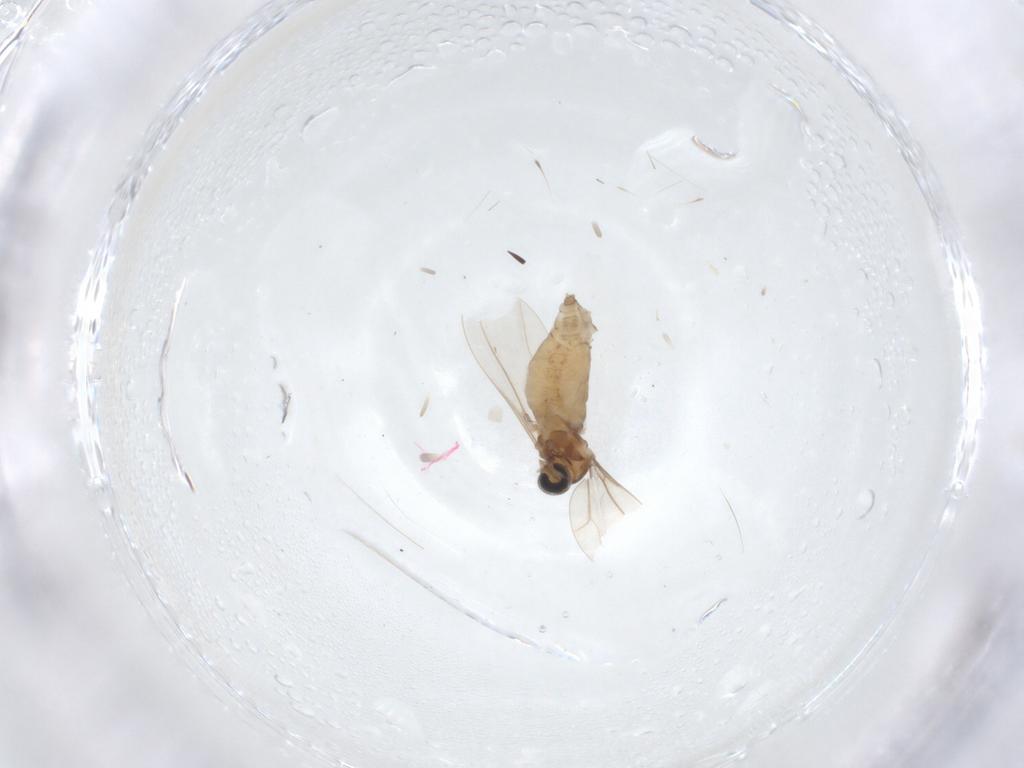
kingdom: Animalia
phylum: Arthropoda
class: Insecta
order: Diptera
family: Cecidomyiidae
